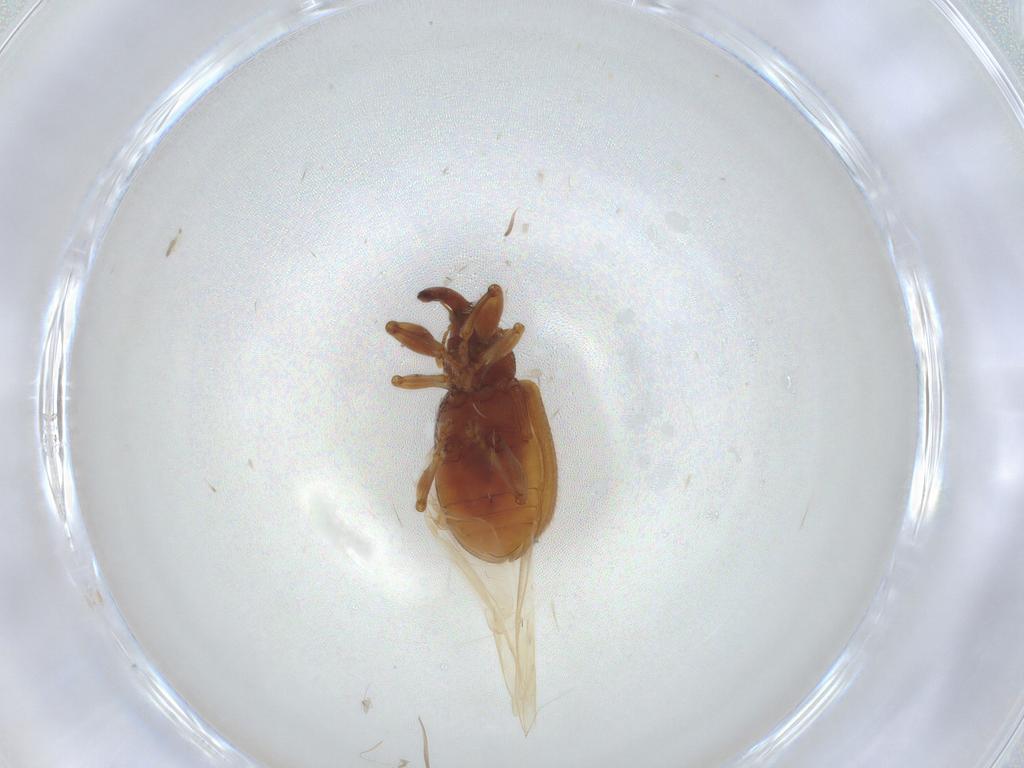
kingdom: Animalia
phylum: Arthropoda
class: Insecta
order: Coleoptera
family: Curculionidae
